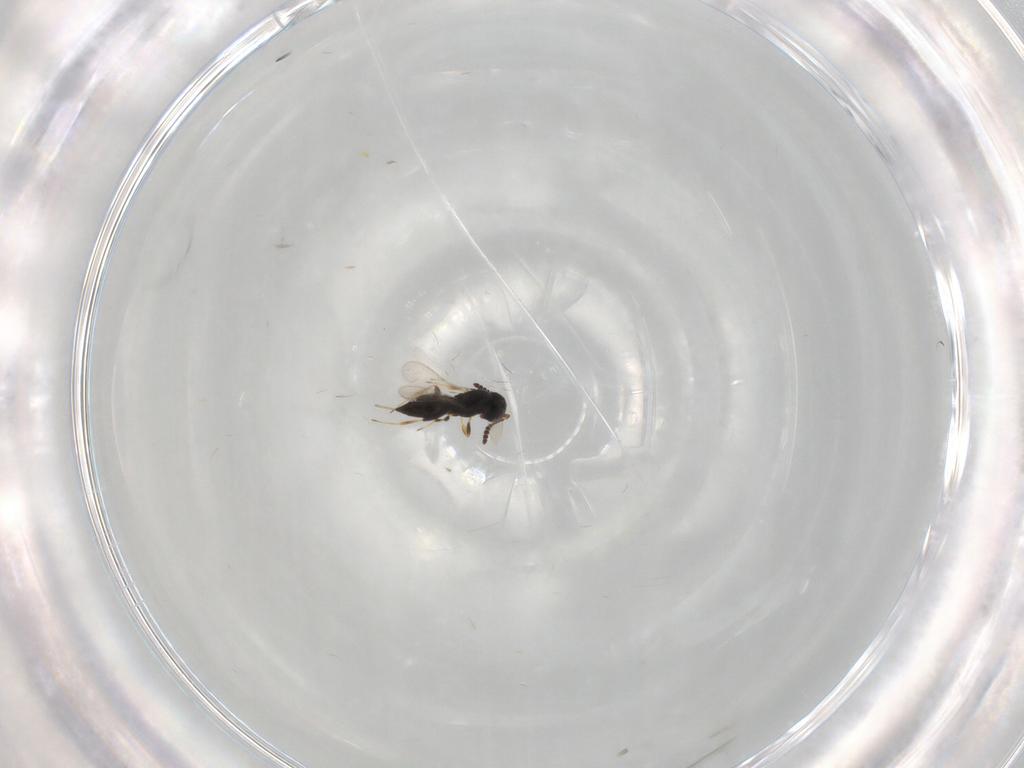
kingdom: Animalia
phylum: Arthropoda
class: Insecta
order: Hymenoptera
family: Scelionidae
